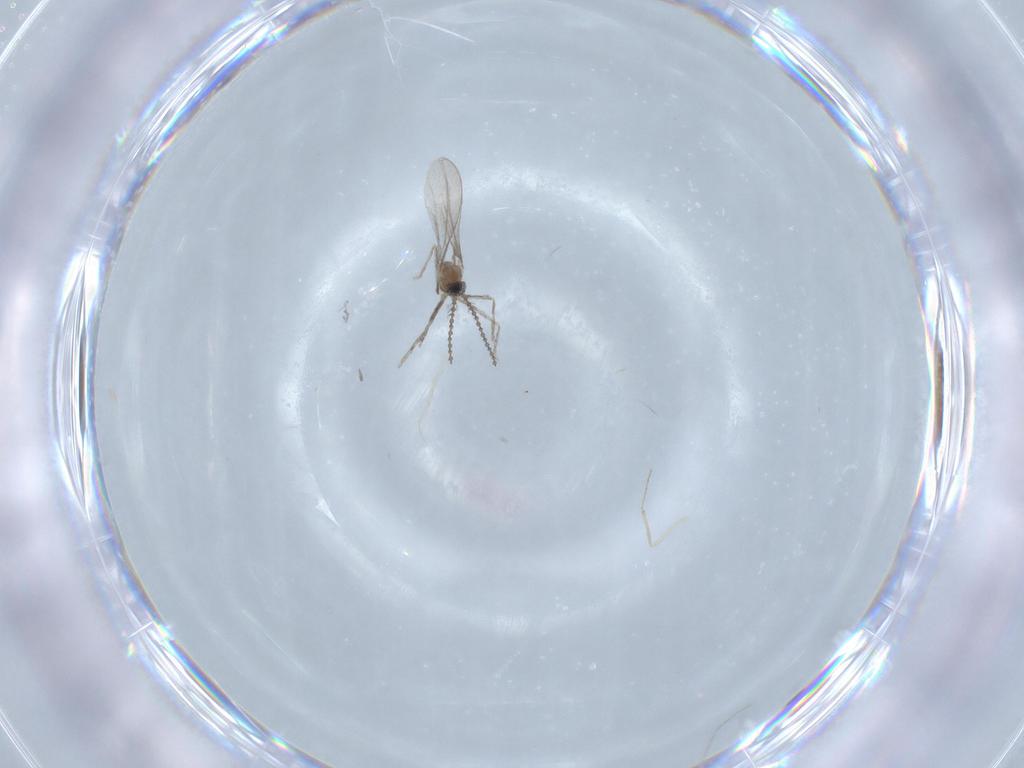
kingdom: Animalia
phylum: Arthropoda
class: Insecta
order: Diptera
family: Cecidomyiidae
